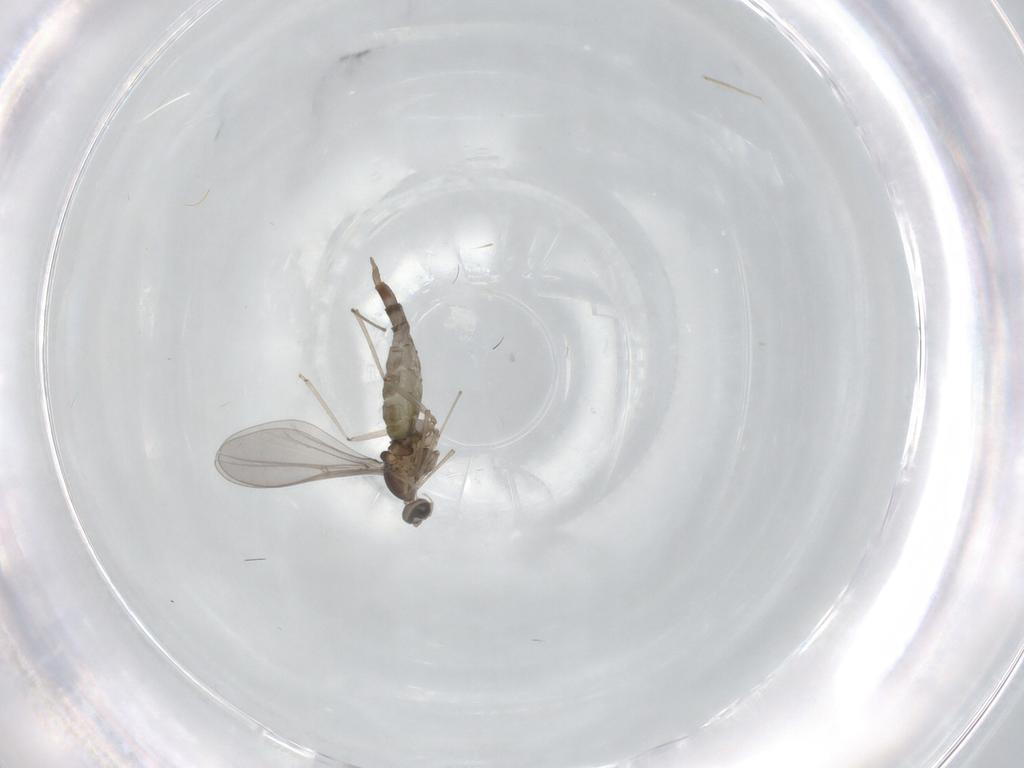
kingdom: Animalia
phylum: Arthropoda
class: Insecta
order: Diptera
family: Cecidomyiidae
